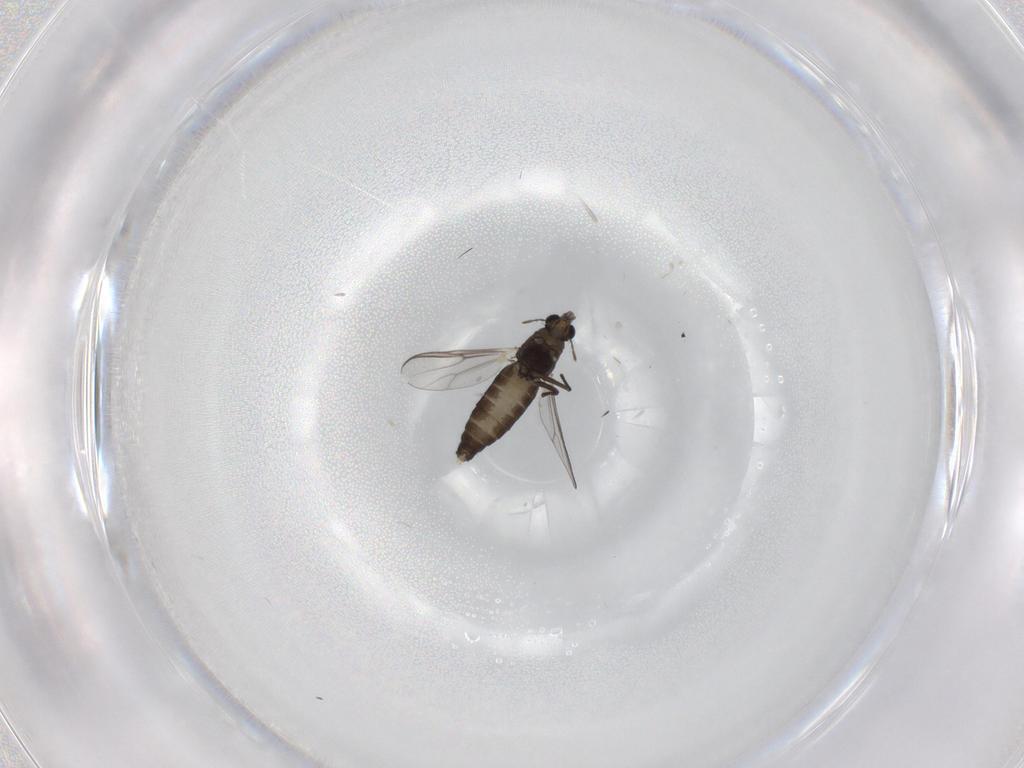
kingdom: Animalia
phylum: Arthropoda
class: Insecta
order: Diptera
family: Chironomidae
